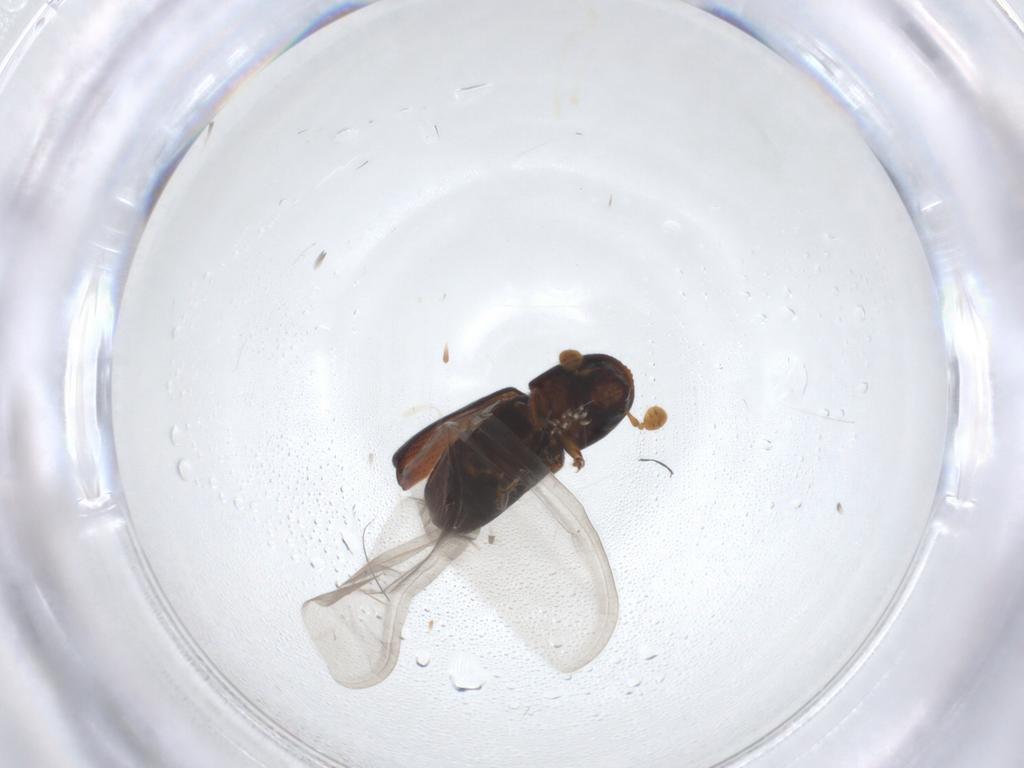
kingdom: Animalia
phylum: Arthropoda
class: Insecta
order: Coleoptera
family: Curculionidae
